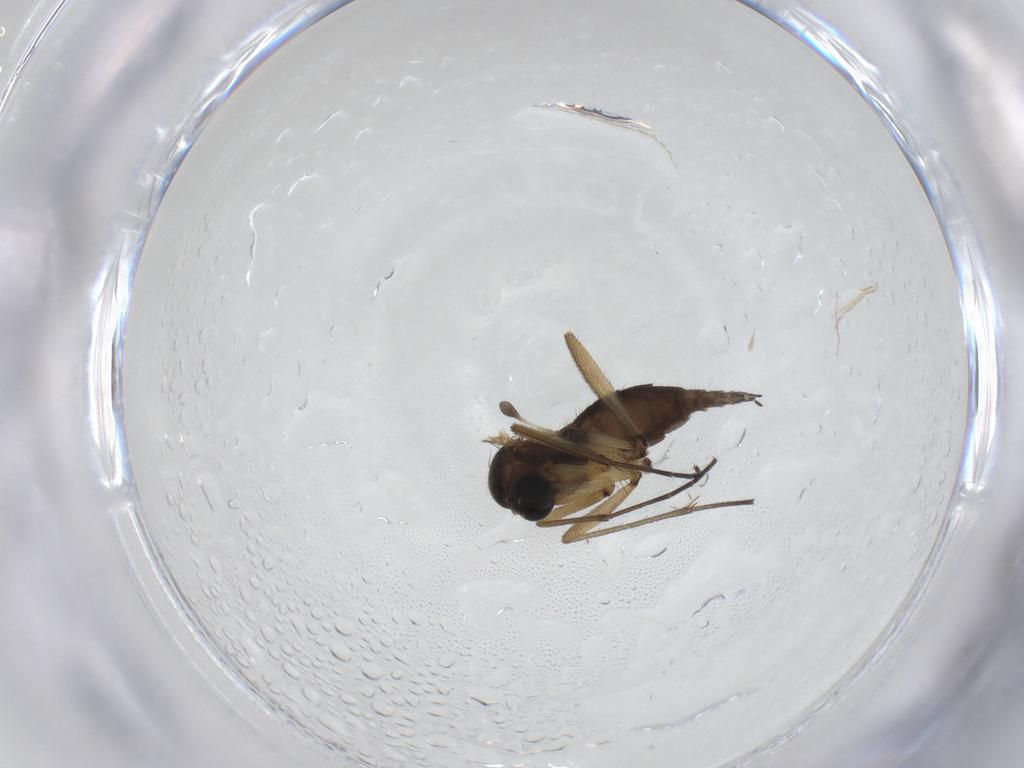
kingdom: Animalia
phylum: Arthropoda
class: Insecta
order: Diptera
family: Sciaridae
